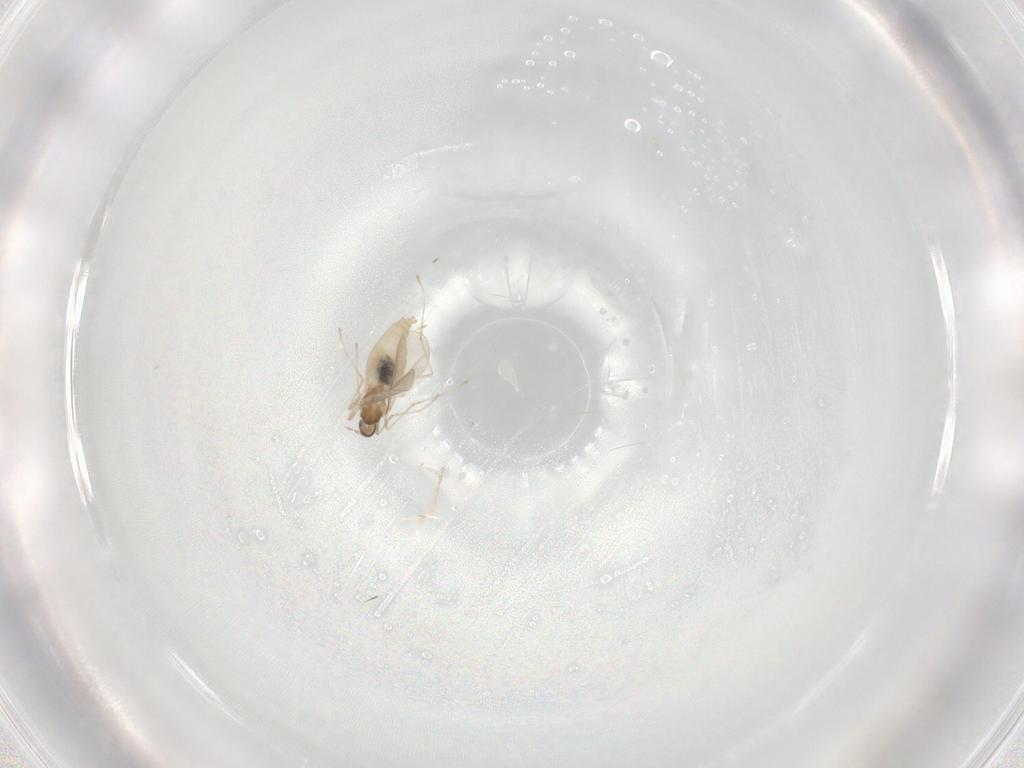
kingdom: Animalia
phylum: Arthropoda
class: Insecta
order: Diptera
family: Cecidomyiidae
